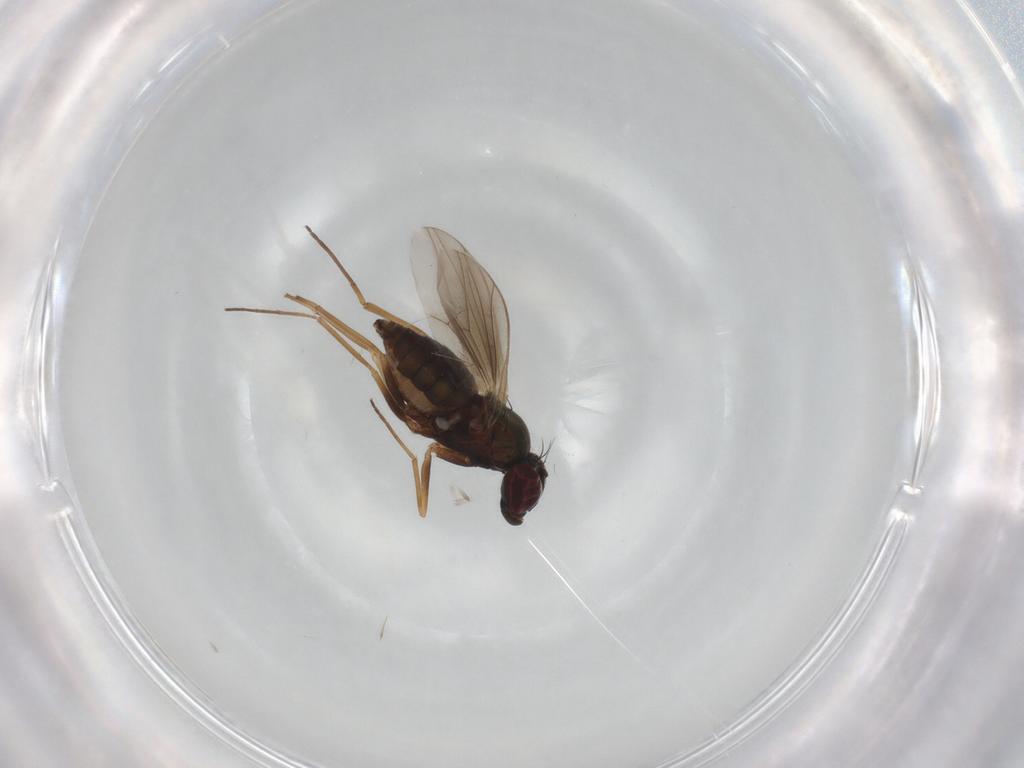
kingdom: Animalia
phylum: Arthropoda
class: Insecta
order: Diptera
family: Dolichopodidae
